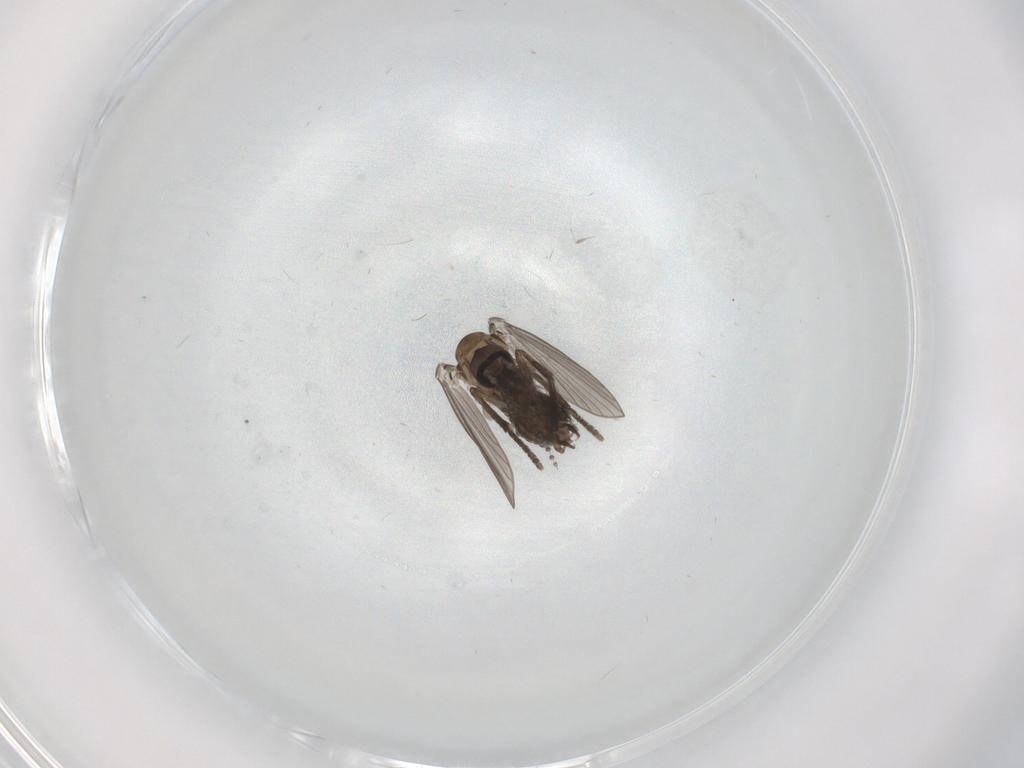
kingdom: Animalia
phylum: Arthropoda
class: Insecta
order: Diptera
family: Psychodidae
